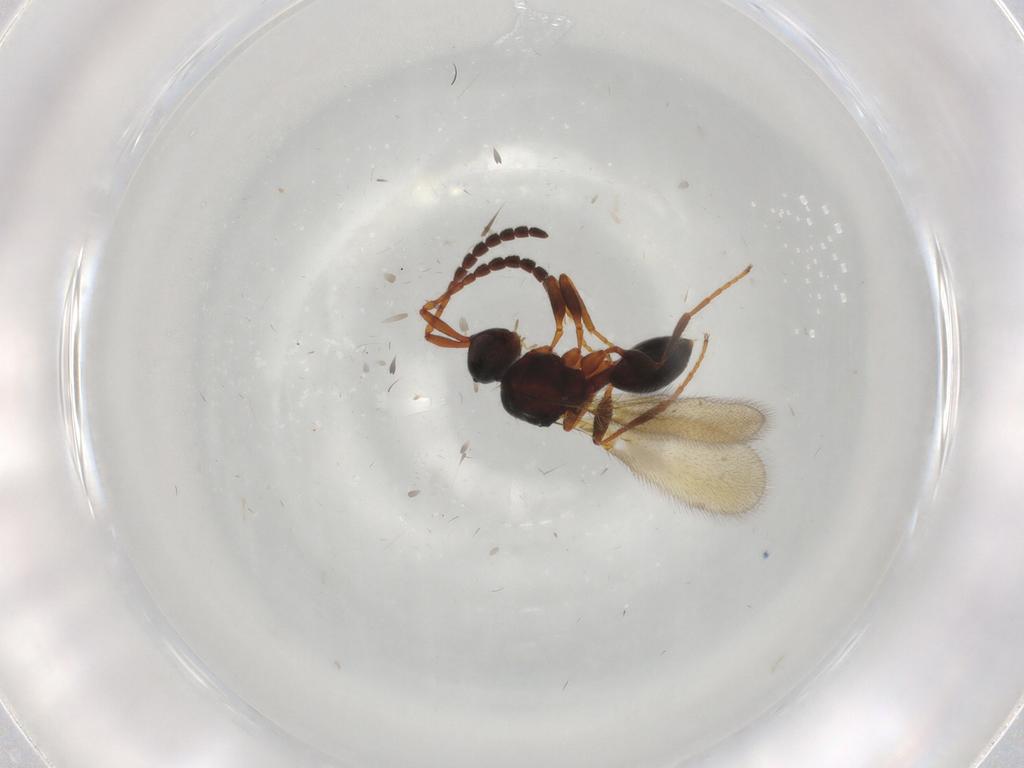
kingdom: Animalia
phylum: Arthropoda
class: Insecta
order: Hymenoptera
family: Diapriidae
